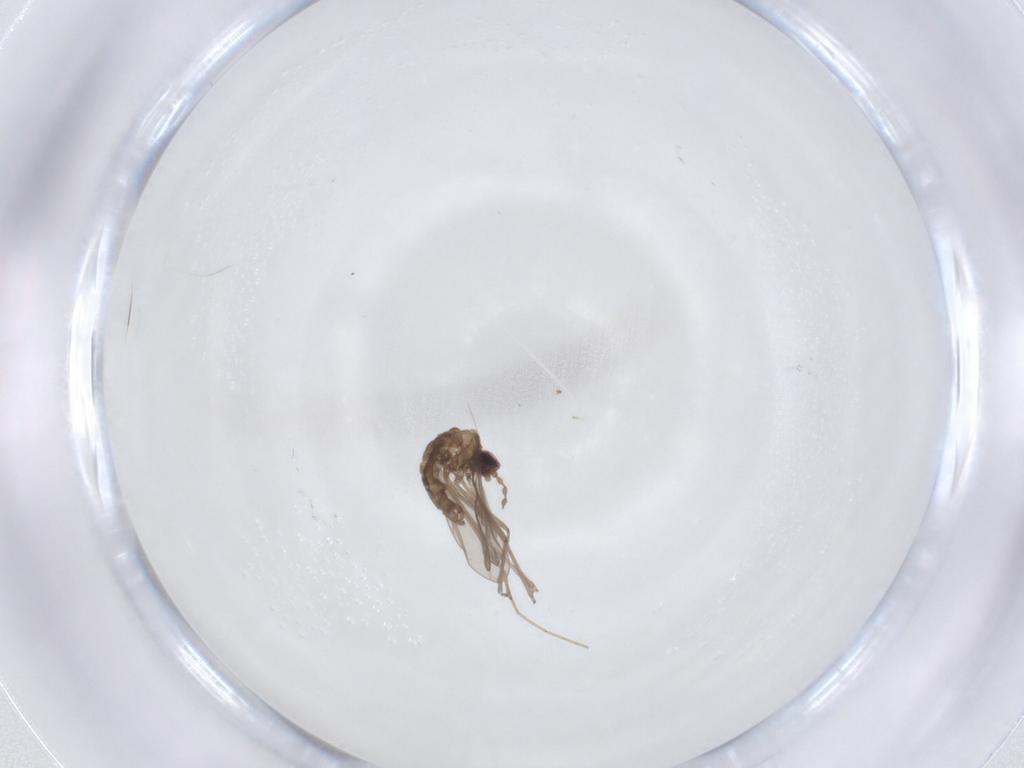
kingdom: Animalia
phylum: Arthropoda
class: Insecta
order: Diptera
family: Cecidomyiidae
